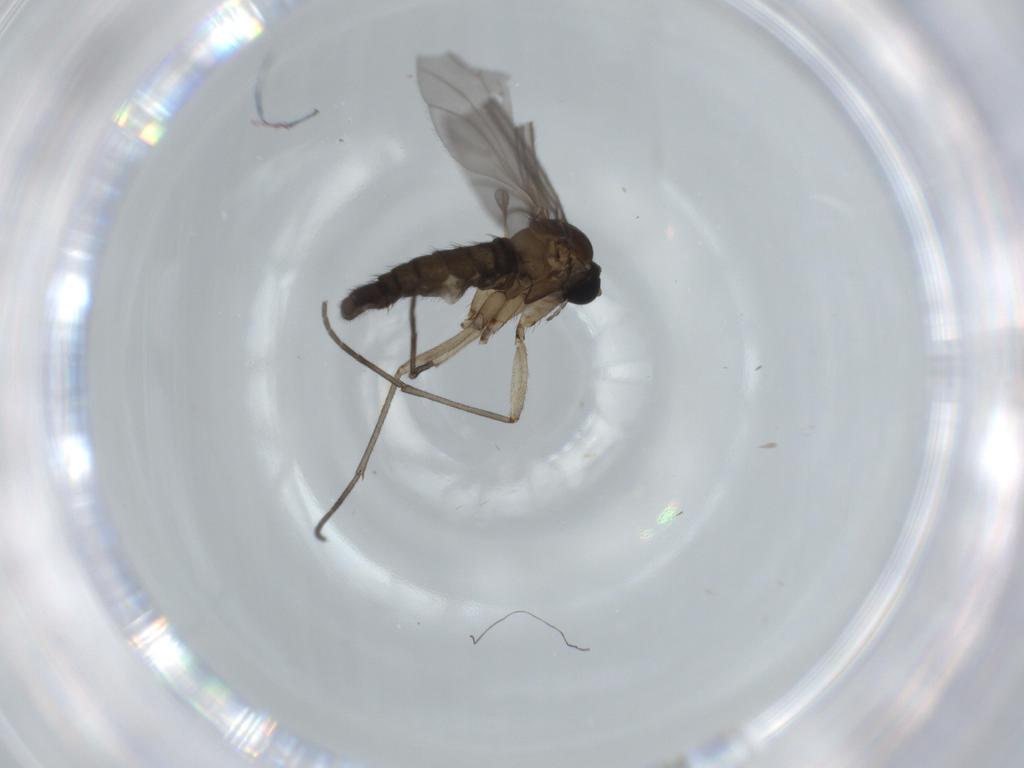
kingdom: Animalia
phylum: Arthropoda
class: Insecta
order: Diptera
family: Sciaridae
